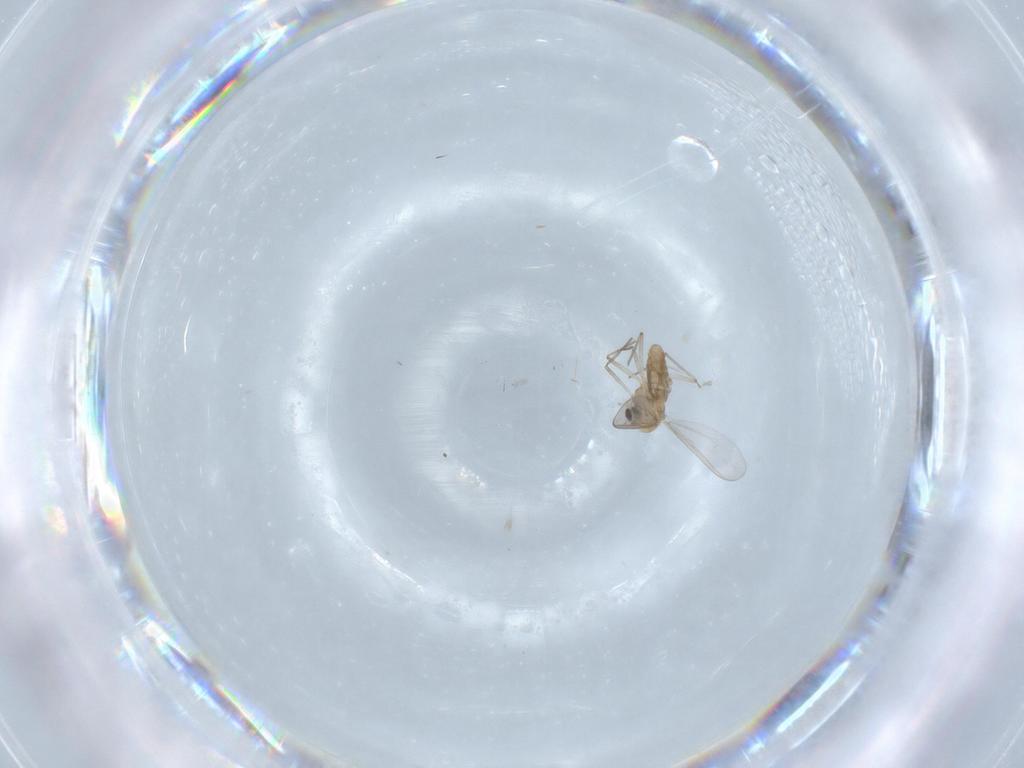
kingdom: Animalia
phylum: Arthropoda
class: Insecta
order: Diptera
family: Chironomidae
